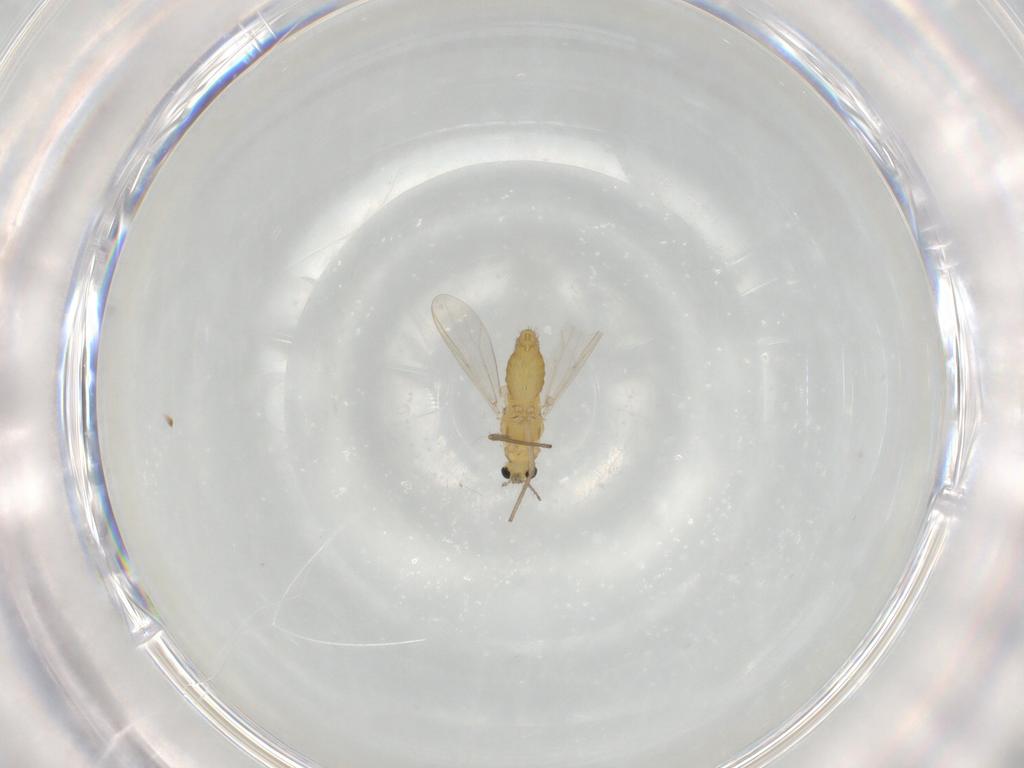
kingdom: Animalia
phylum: Arthropoda
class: Insecta
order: Diptera
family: Chironomidae
